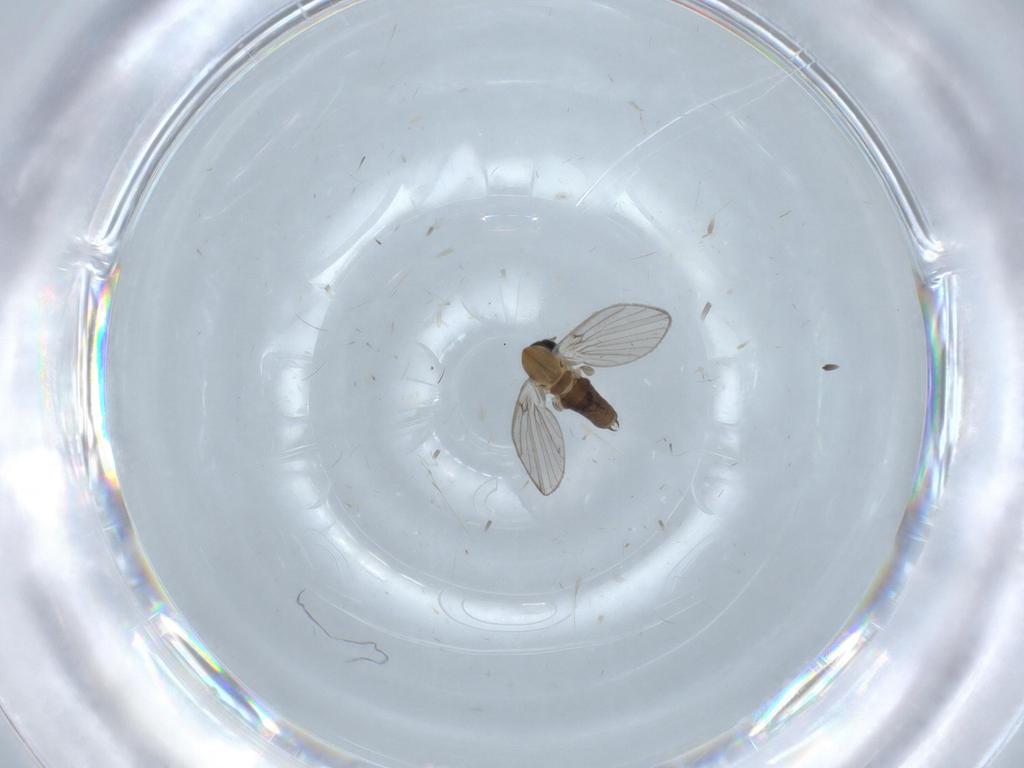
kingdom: Animalia
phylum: Arthropoda
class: Insecta
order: Diptera
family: Psychodidae
